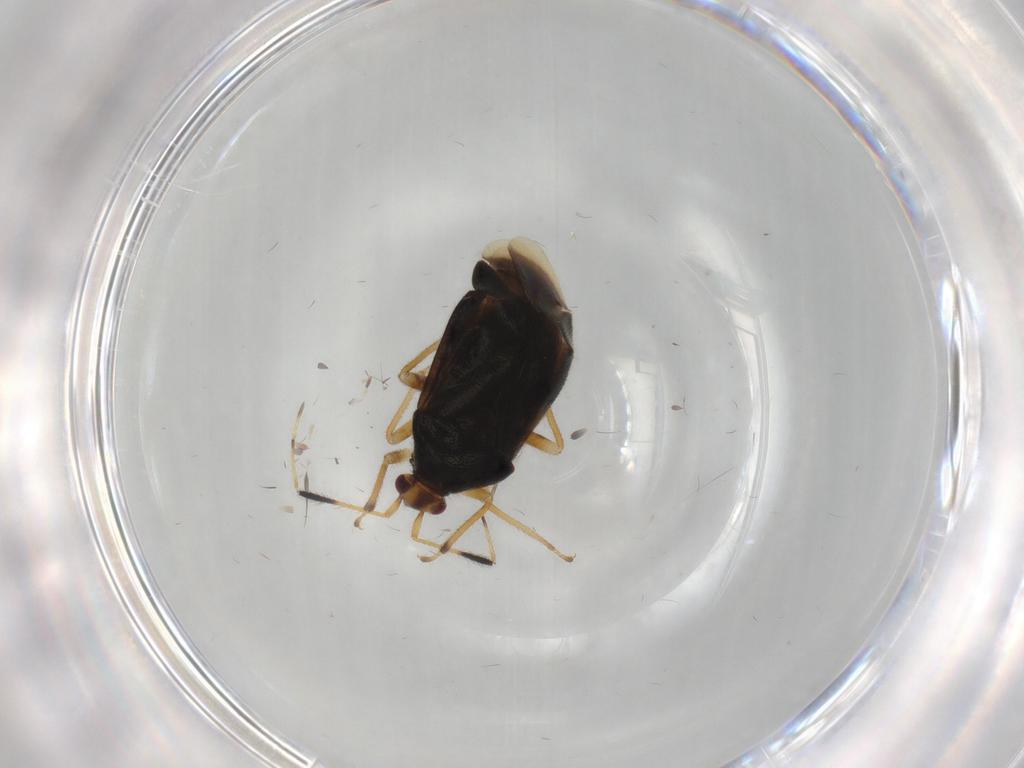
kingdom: Animalia
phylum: Arthropoda
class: Insecta
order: Hemiptera
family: Miridae
